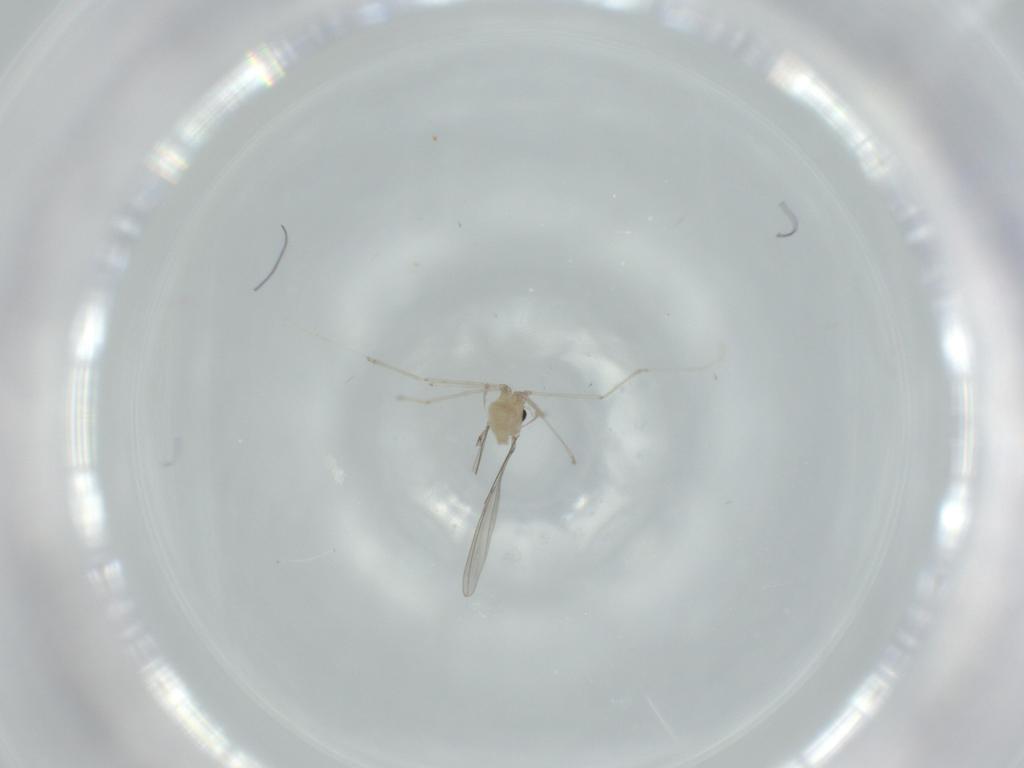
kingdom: Animalia
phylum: Arthropoda
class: Insecta
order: Diptera
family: Cecidomyiidae
